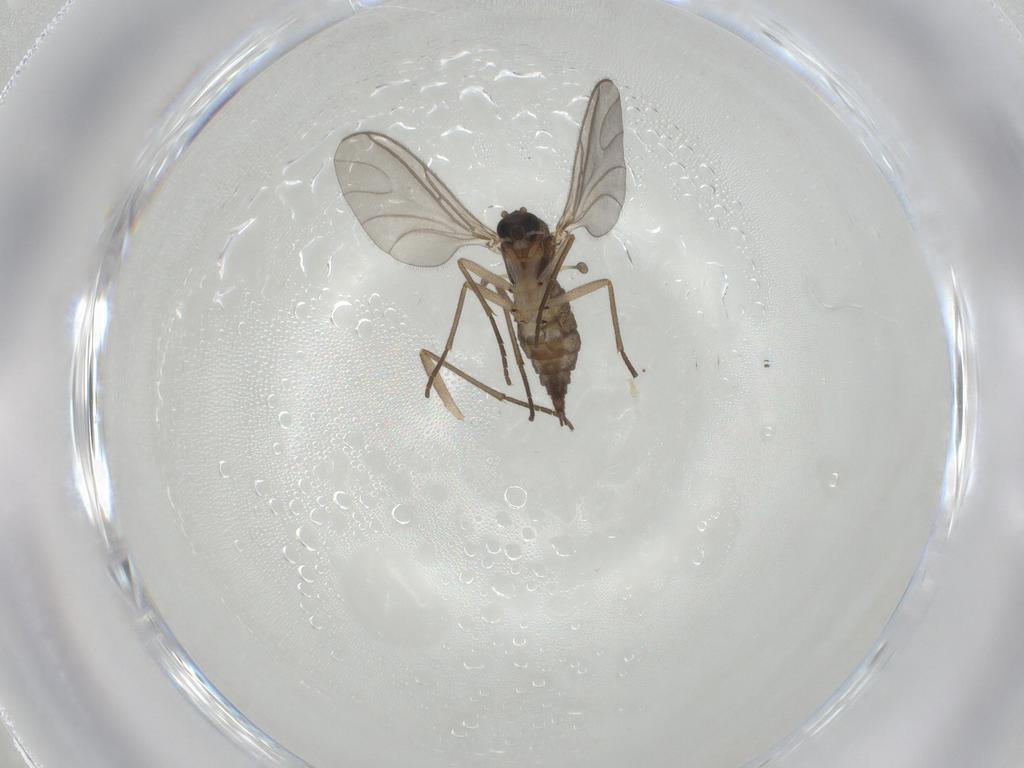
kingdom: Animalia
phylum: Arthropoda
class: Insecta
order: Diptera
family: Sciaridae
